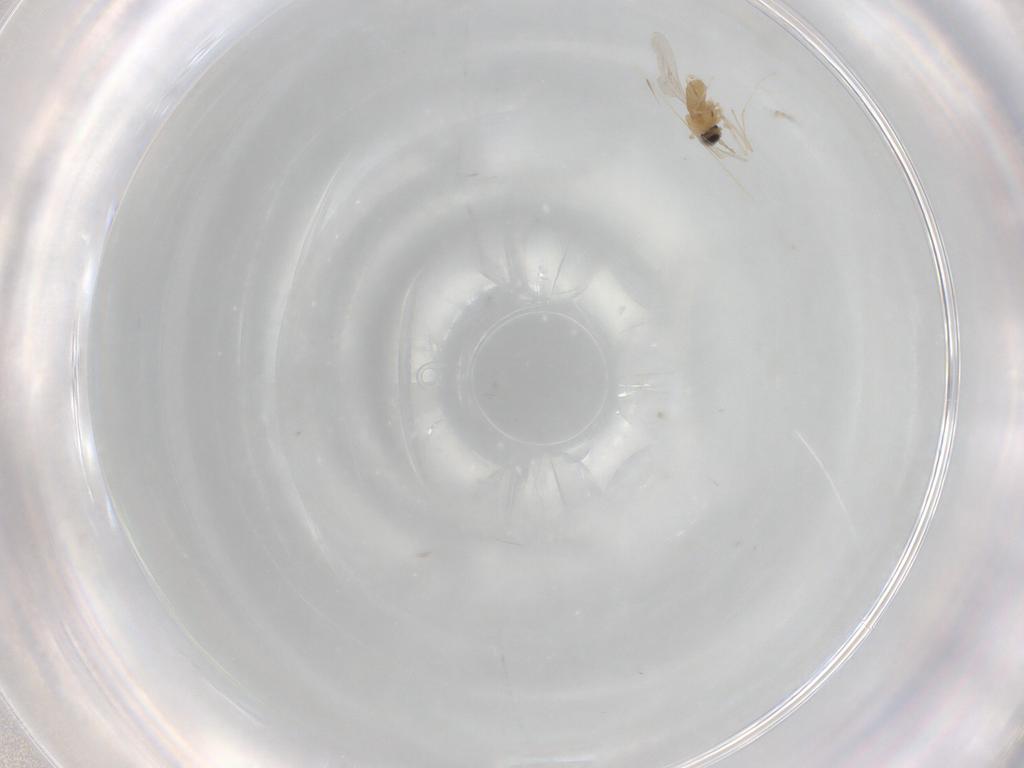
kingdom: Animalia
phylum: Arthropoda
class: Insecta
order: Diptera
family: Cecidomyiidae
